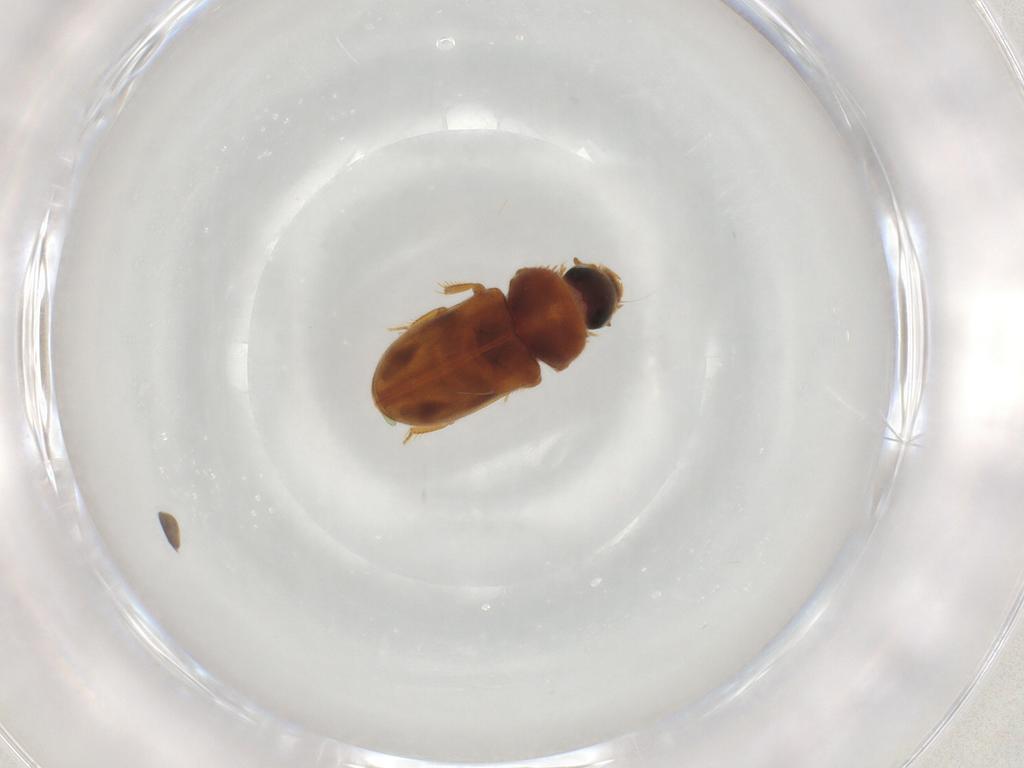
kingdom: Animalia
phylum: Arthropoda
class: Insecta
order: Coleoptera
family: Heteroceridae
